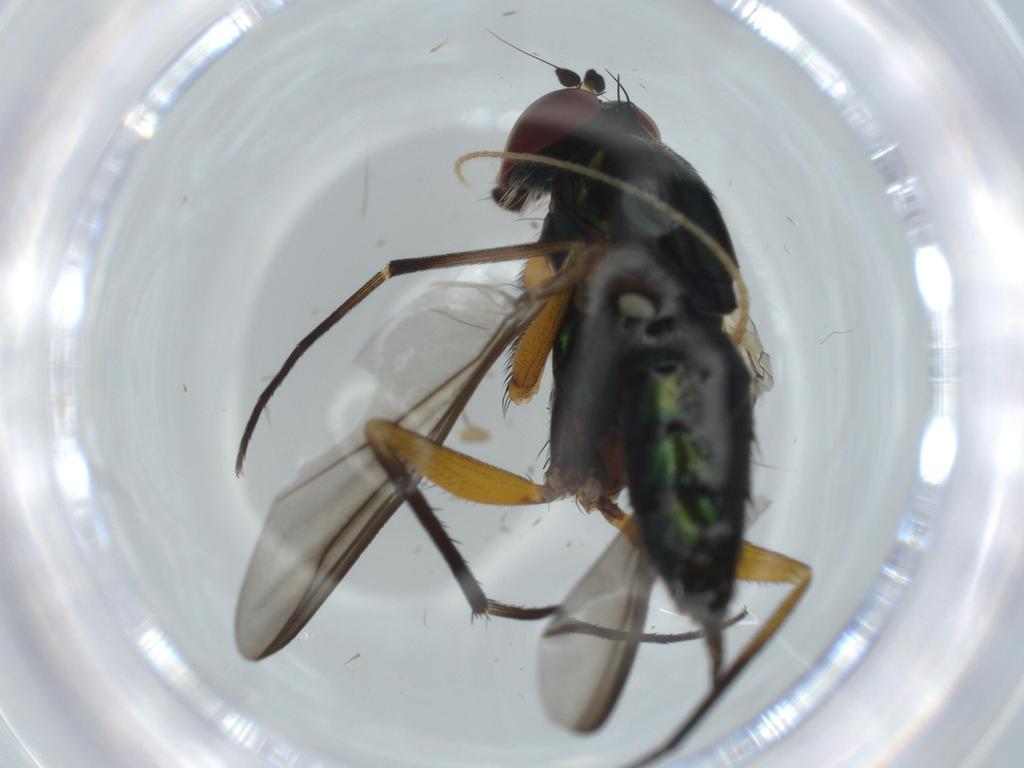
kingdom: Animalia
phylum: Arthropoda
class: Insecta
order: Diptera
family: Dolichopodidae
